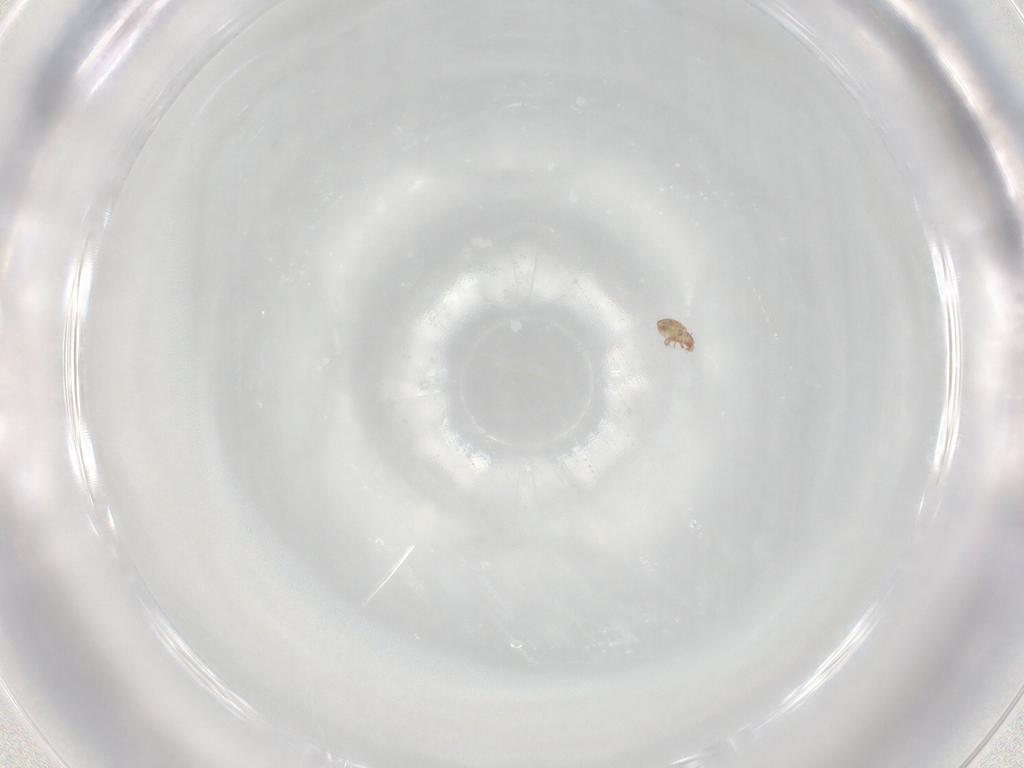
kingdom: Animalia
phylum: Arthropoda
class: Arachnida
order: Sarcoptiformes
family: Phenopelopidae
